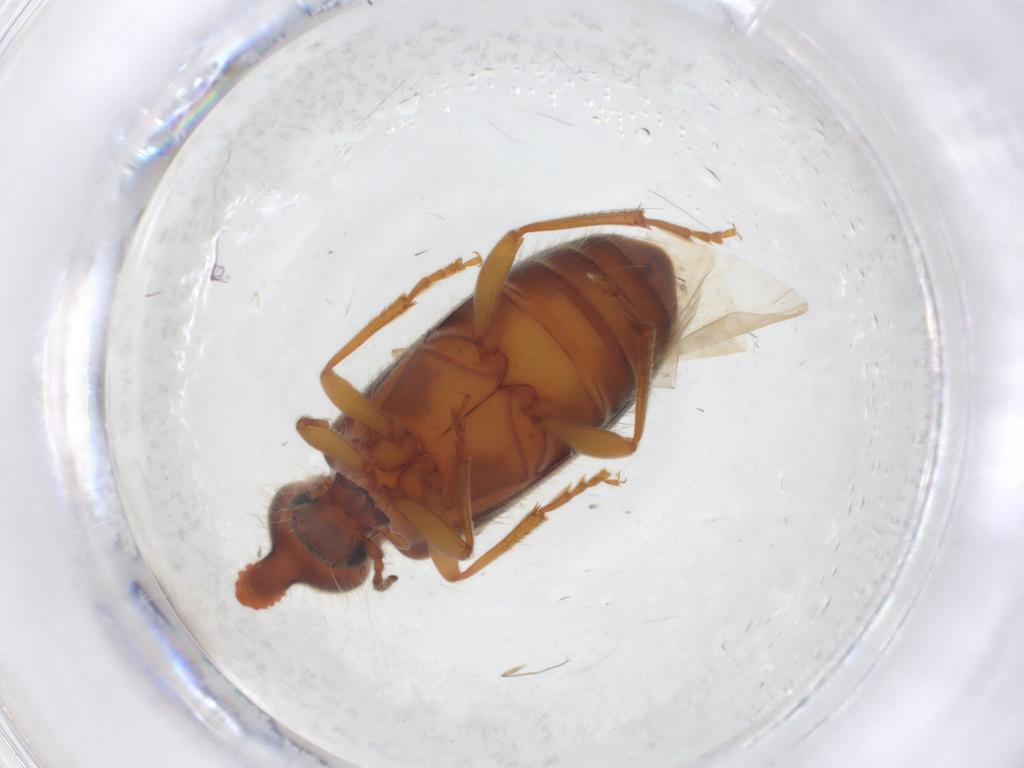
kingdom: Animalia
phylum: Arthropoda
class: Insecta
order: Coleoptera
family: Anthicidae
